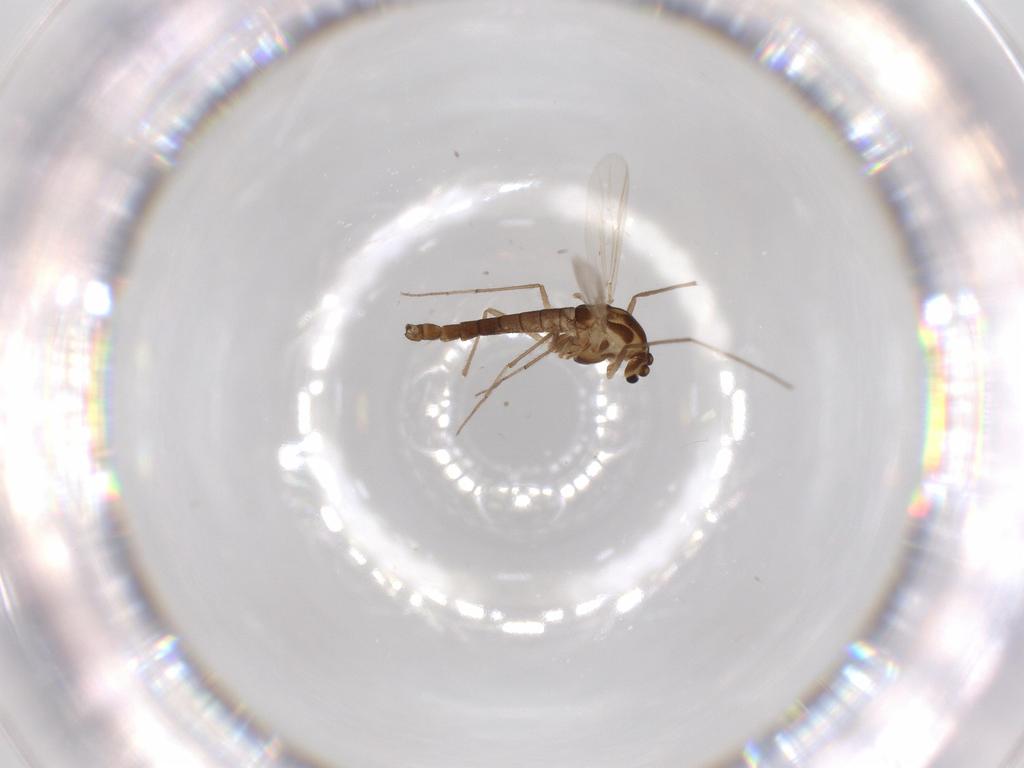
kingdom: Animalia
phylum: Arthropoda
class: Insecta
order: Diptera
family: Chironomidae
